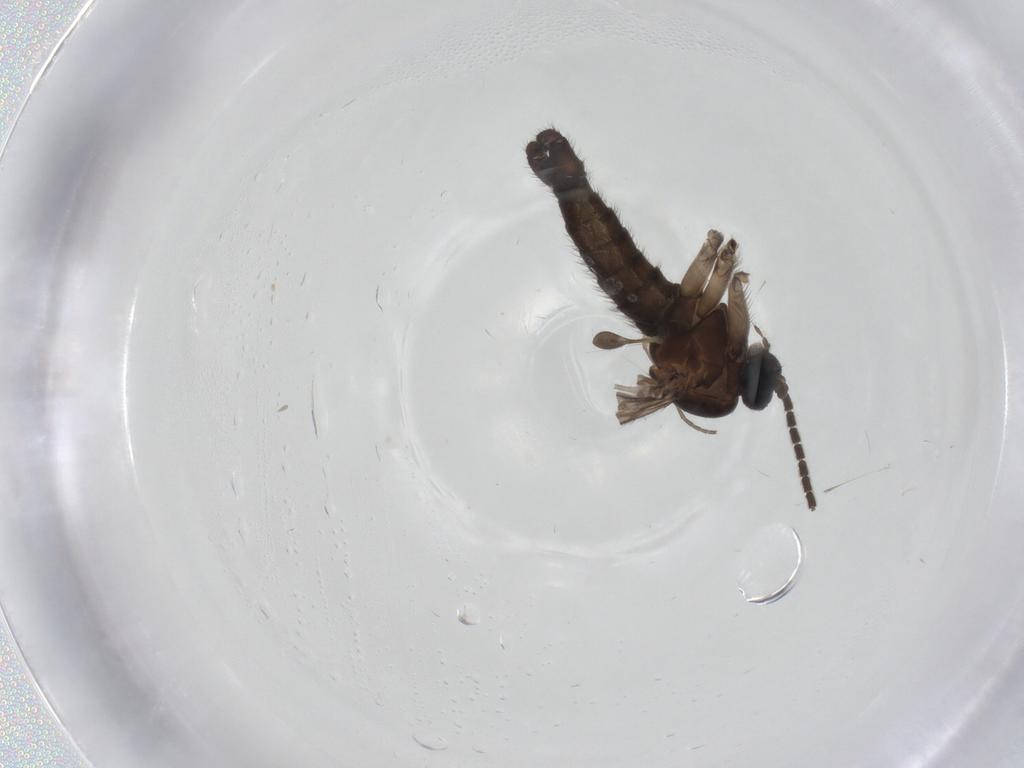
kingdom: Animalia
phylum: Arthropoda
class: Insecta
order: Diptera
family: Sciaridae
